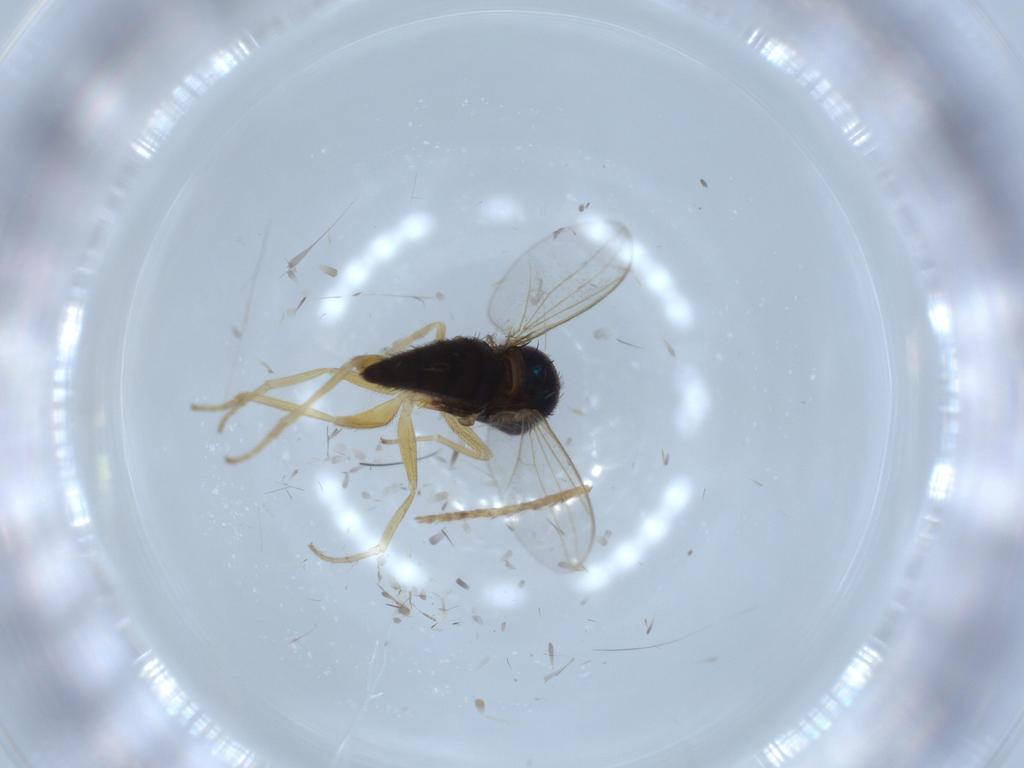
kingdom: Animalia
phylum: Arthropoda
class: Insecta
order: Diptera
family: Dolichopodidae
